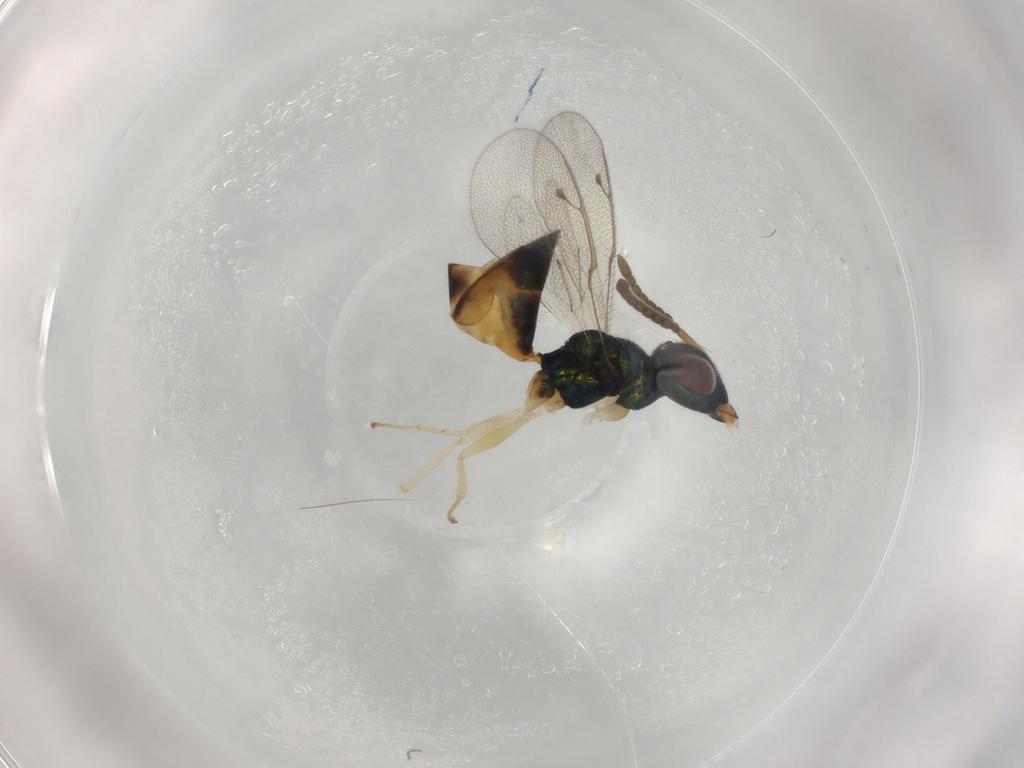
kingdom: Animalia
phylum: Arthropoda
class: Insecta
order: Hymenoptera
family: Pteromalidae
